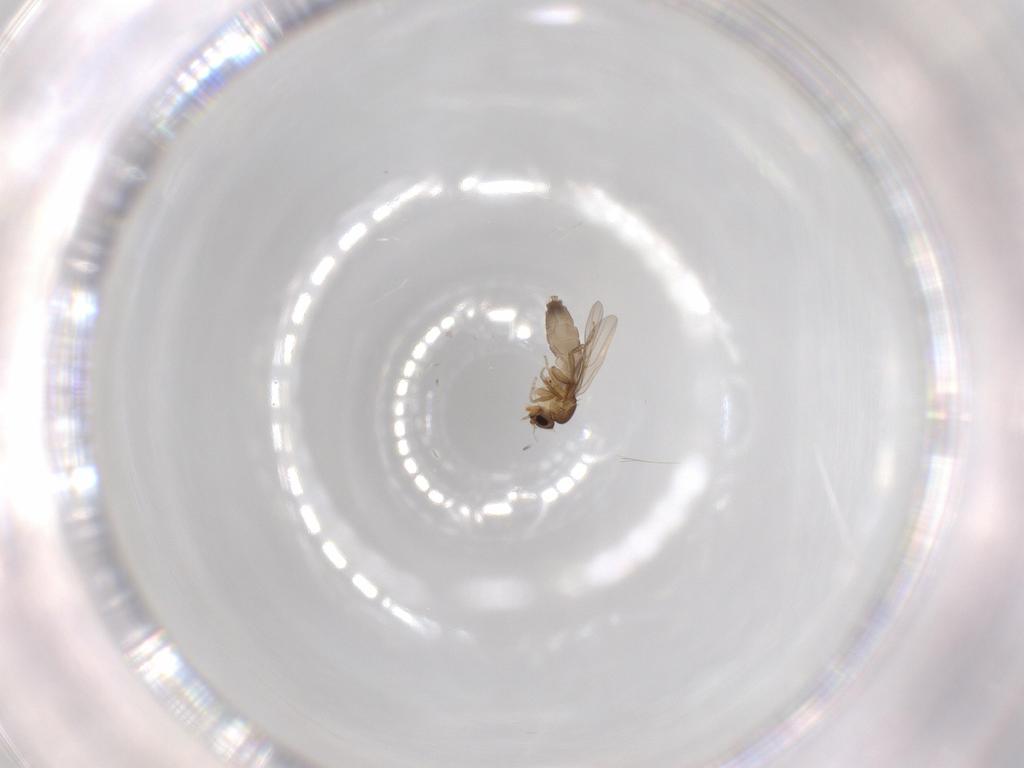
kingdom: Animalia
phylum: Arthropoda
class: Insecta
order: Diptera
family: Phoridae
